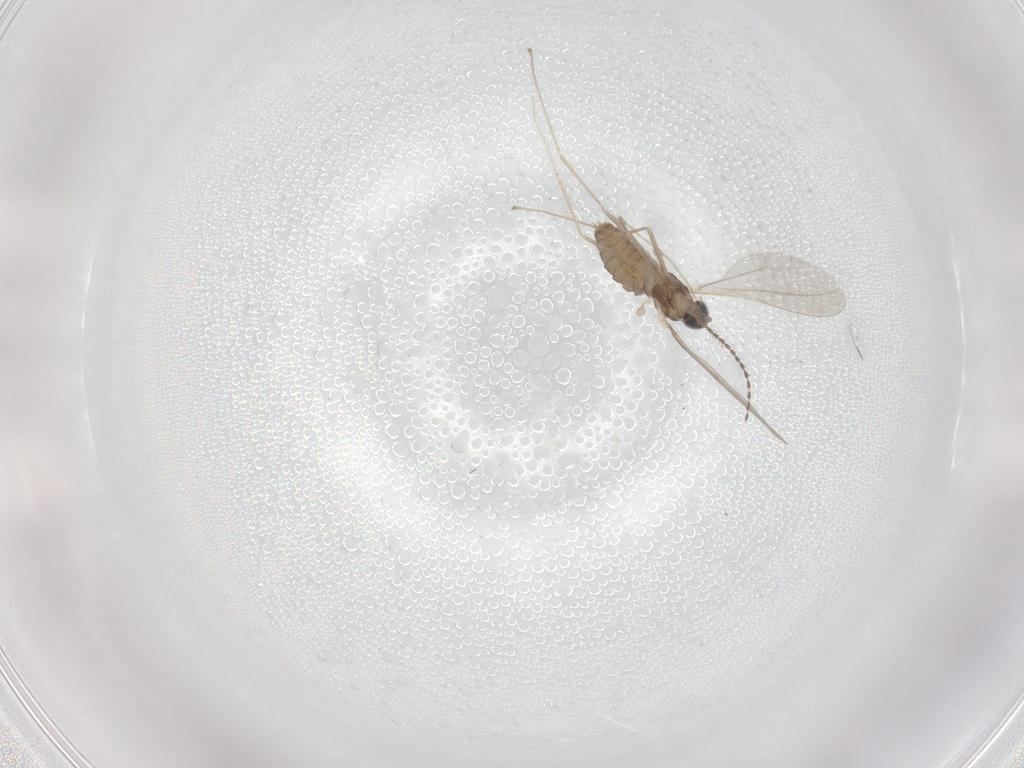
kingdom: Animalia
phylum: Arthropoda
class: Insecta
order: Diptera
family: Cecidomyiidae
